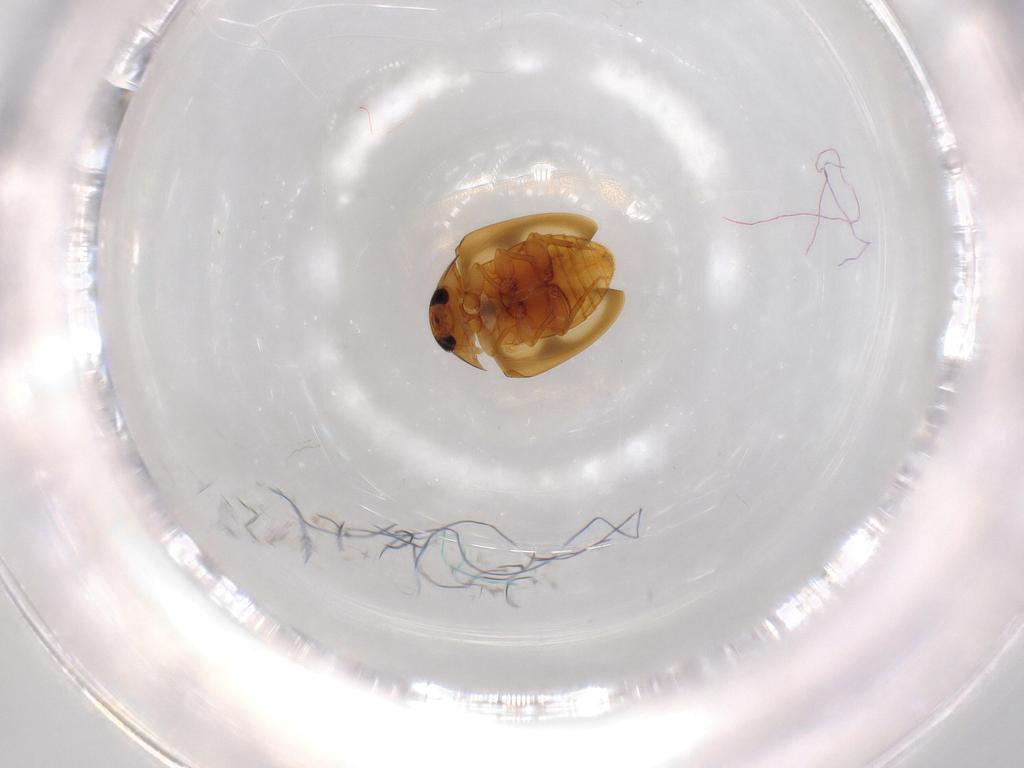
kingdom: Animalia
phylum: Arthropoda
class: Insecta
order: Coleoptera
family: Phalacridae
